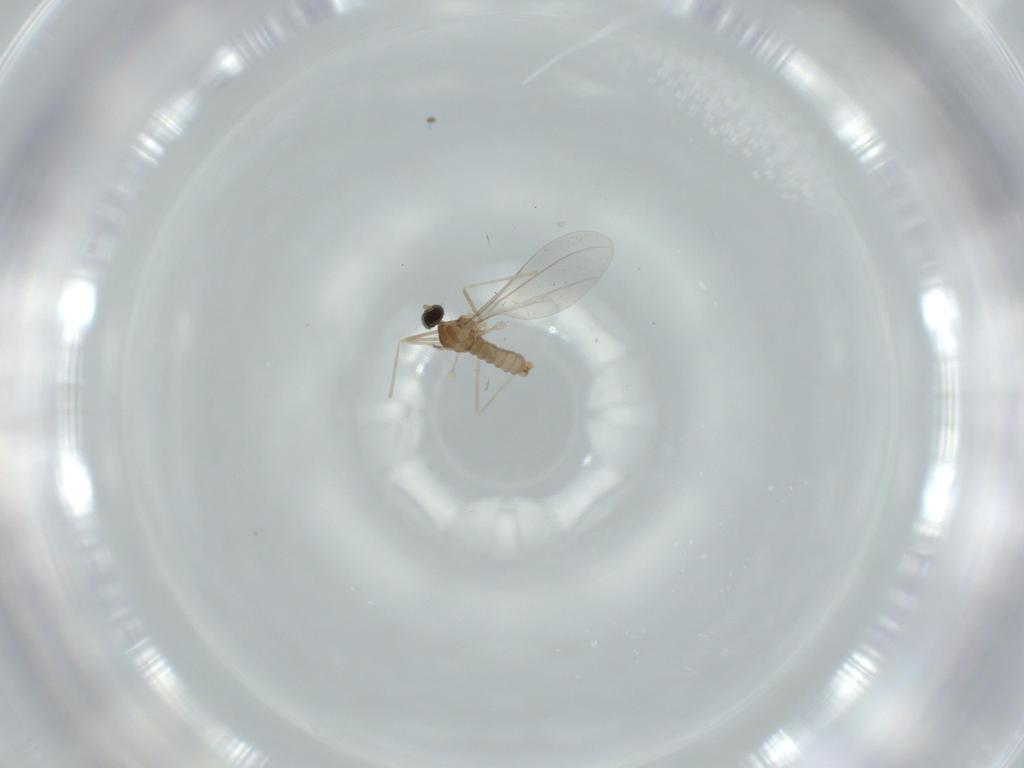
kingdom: Animalia
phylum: Arthropoda
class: Insecta
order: Diptera
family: Cecidomyiidae
